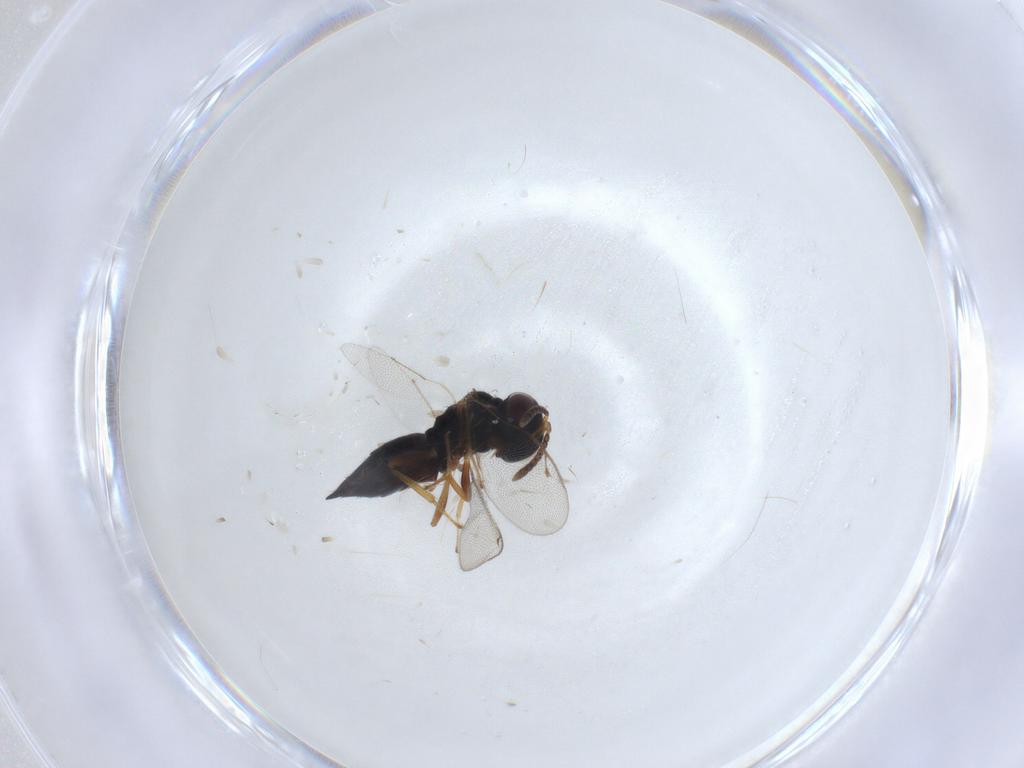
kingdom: Animalia
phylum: Arthropoda
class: Insecta
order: Hymenoptera
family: Pteromalidae
